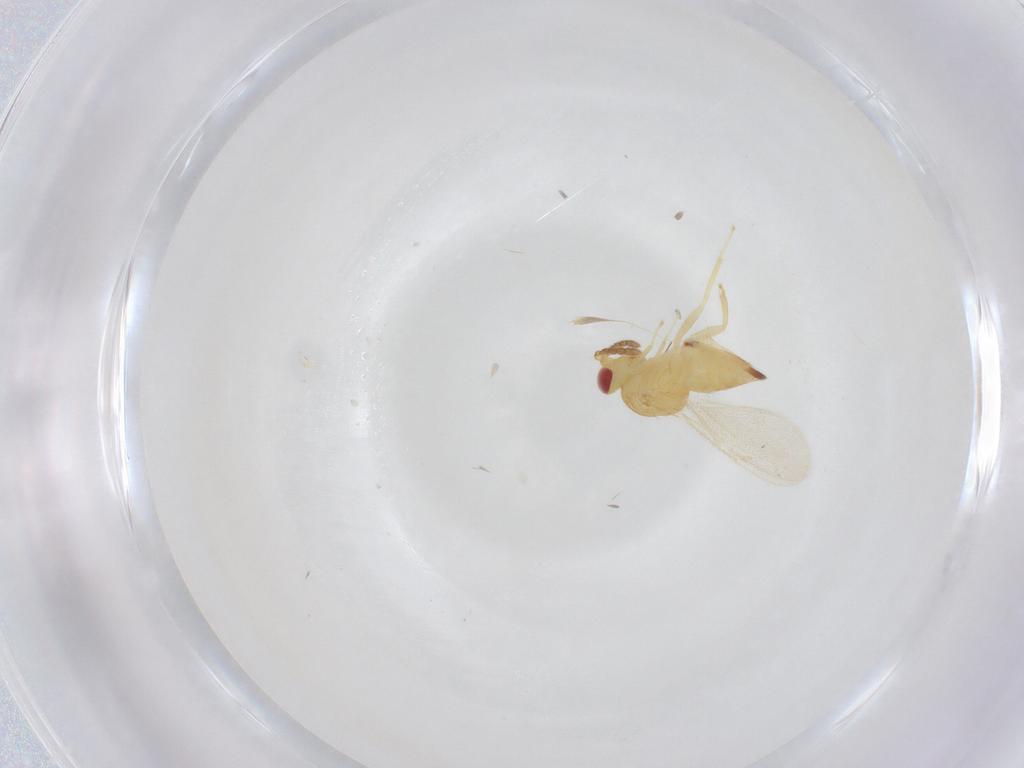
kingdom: Animalia
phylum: Arthropoda
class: Insecta
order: Hymenoptera
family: Eulophidae
